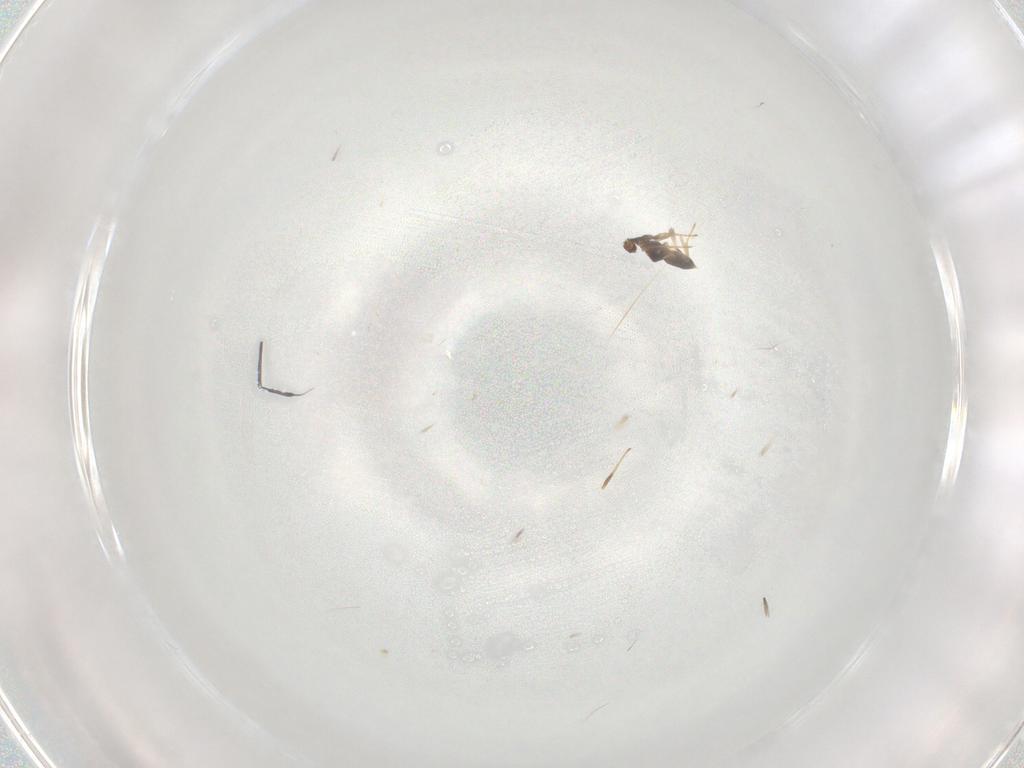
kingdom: Animalia
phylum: Arthropoda
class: Insecta
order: Hymenoptera
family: Eulophidae
